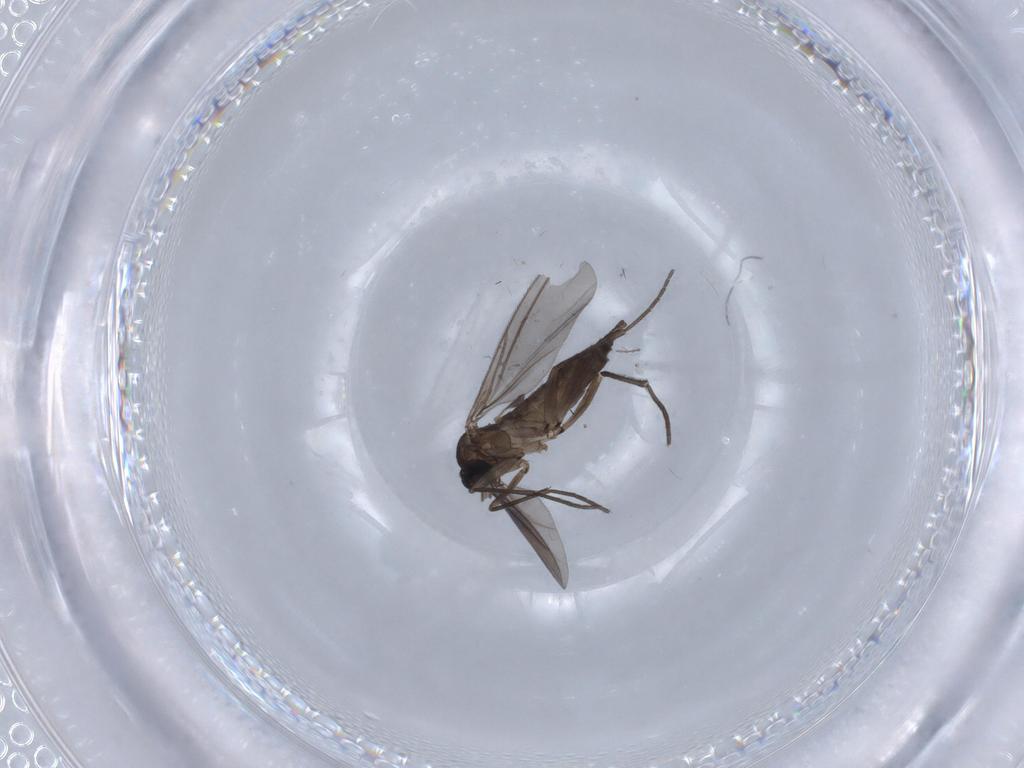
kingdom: Animalia
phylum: Arthropoda
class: Insecta
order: Diptera
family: Sciaridae
